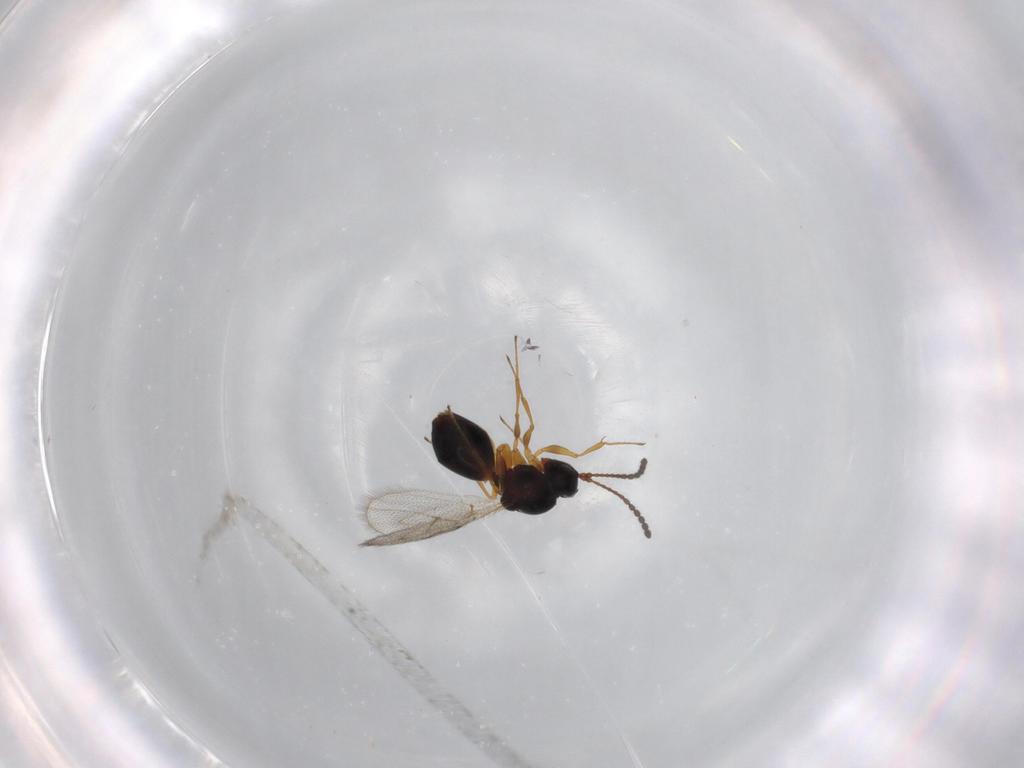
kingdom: Animalia
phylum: Arthropoda
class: Insecta
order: Hymenoptera
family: Figitidae
